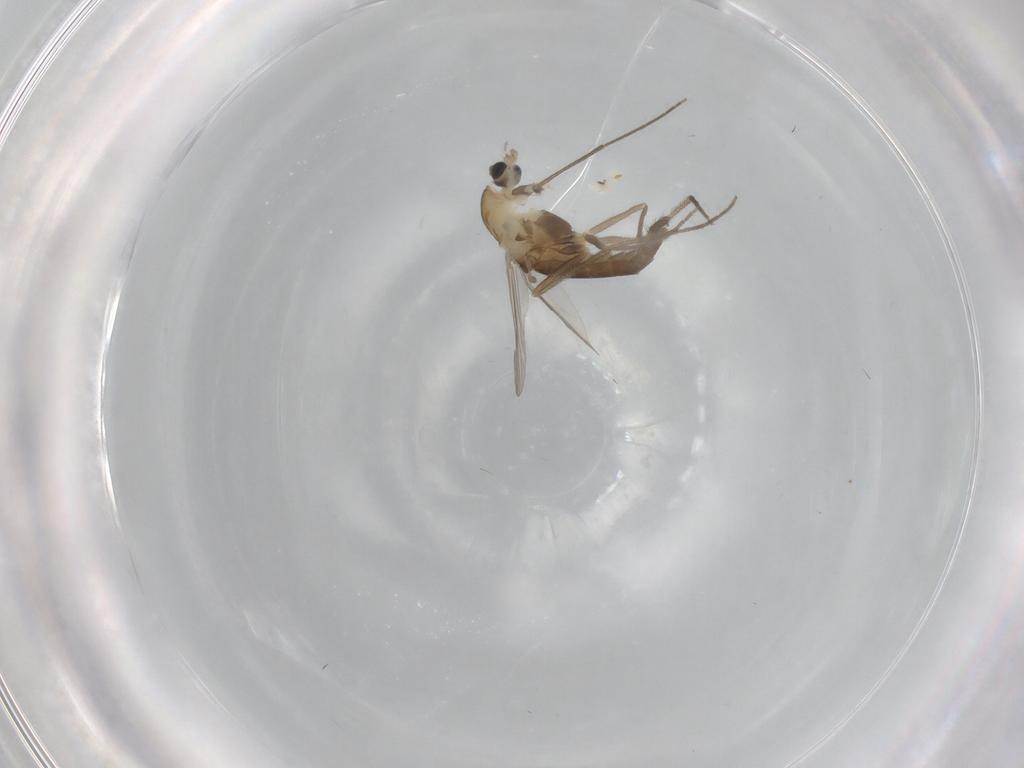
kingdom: Animalia
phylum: Arthropoda
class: Insecta
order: Diptera
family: Chironomidae
